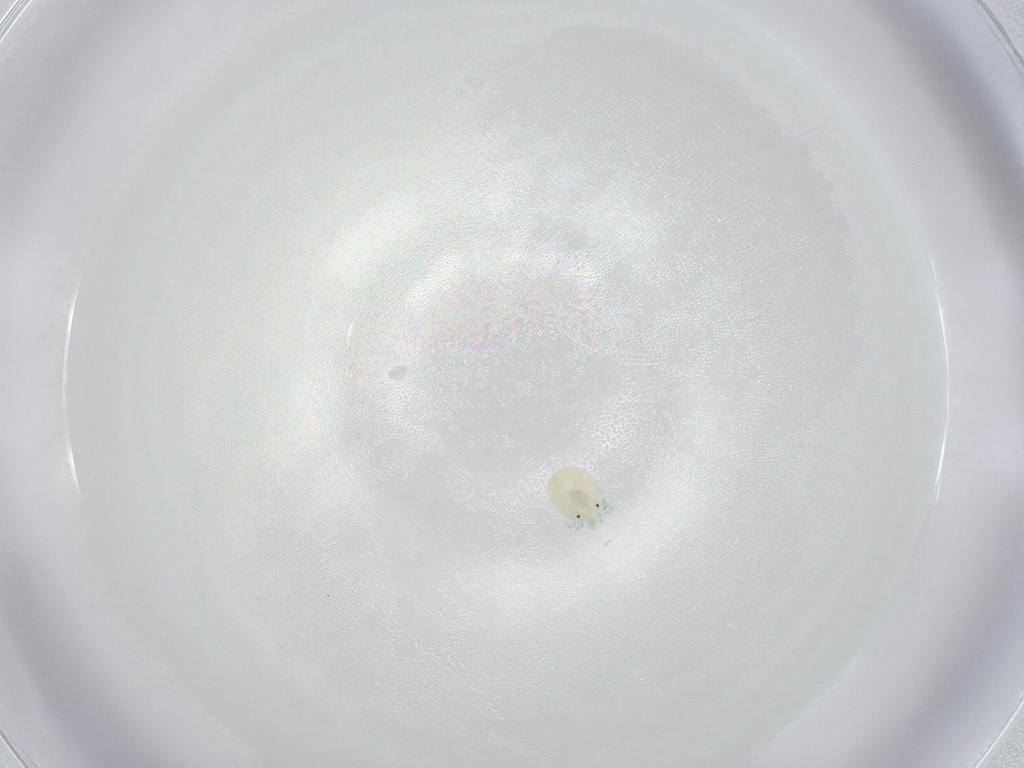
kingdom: Animalia
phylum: Arthropoda
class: Arachnida
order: Trombidiformes
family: Arrenuridae
